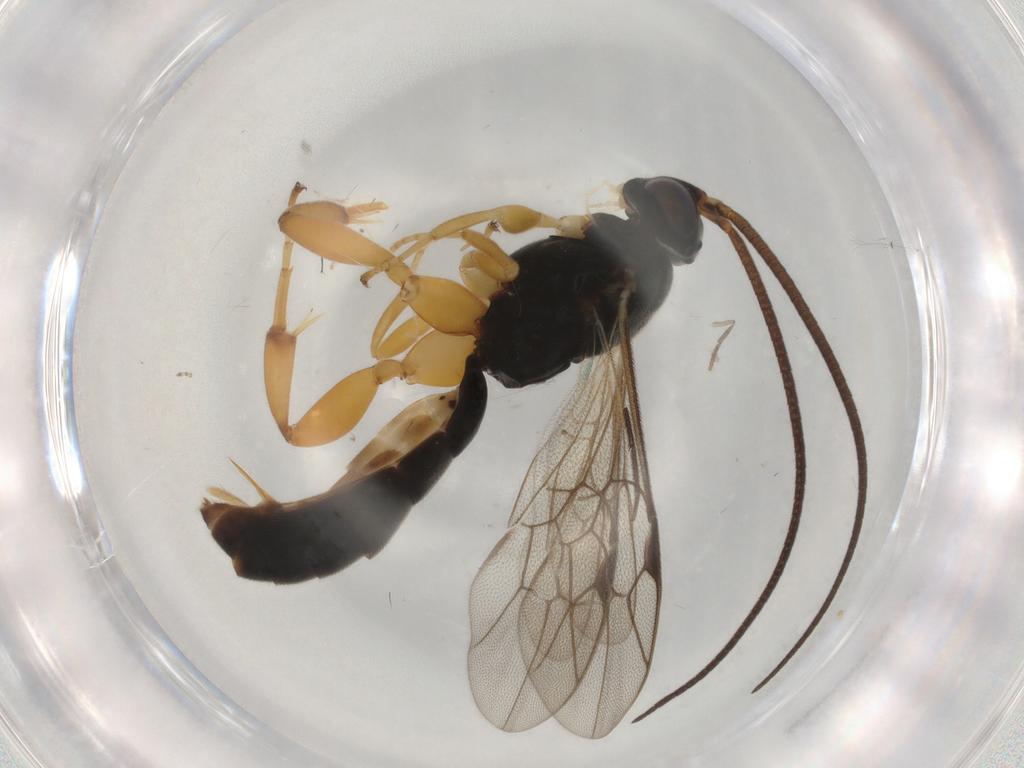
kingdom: Animalia
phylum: Arthropoda
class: Insecta
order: Hymenoptera
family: Ichneumonidae
